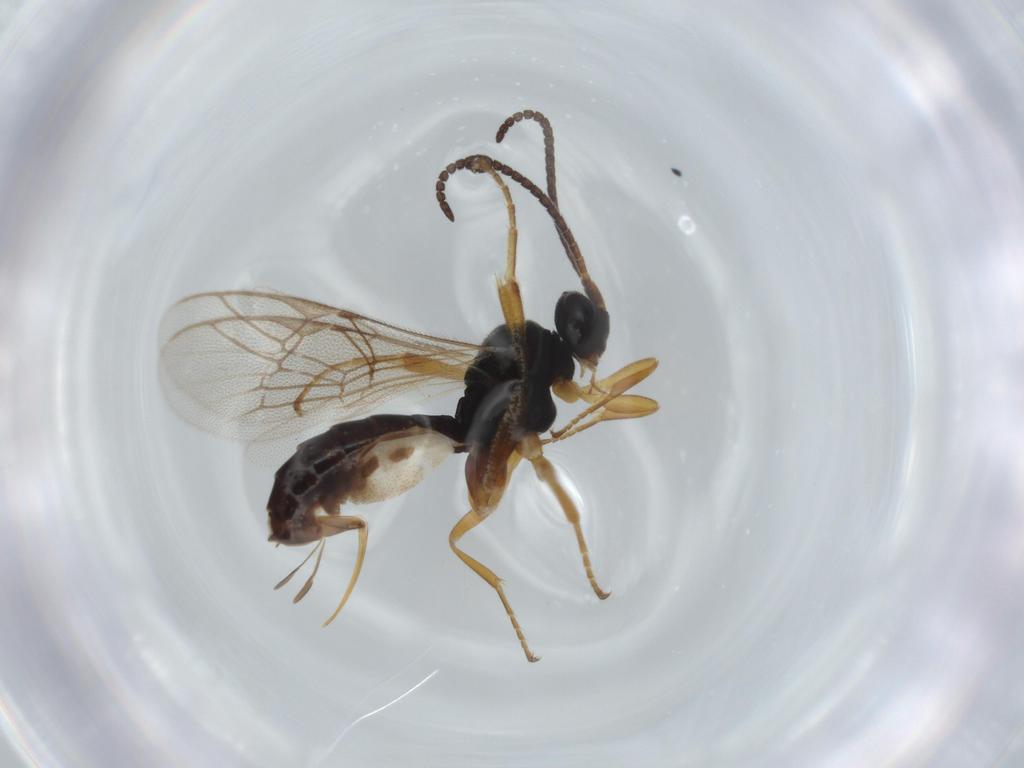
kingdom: Animalia
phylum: Arthropoda
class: Insecta
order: Hymenoptera
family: Ichneumonidae
